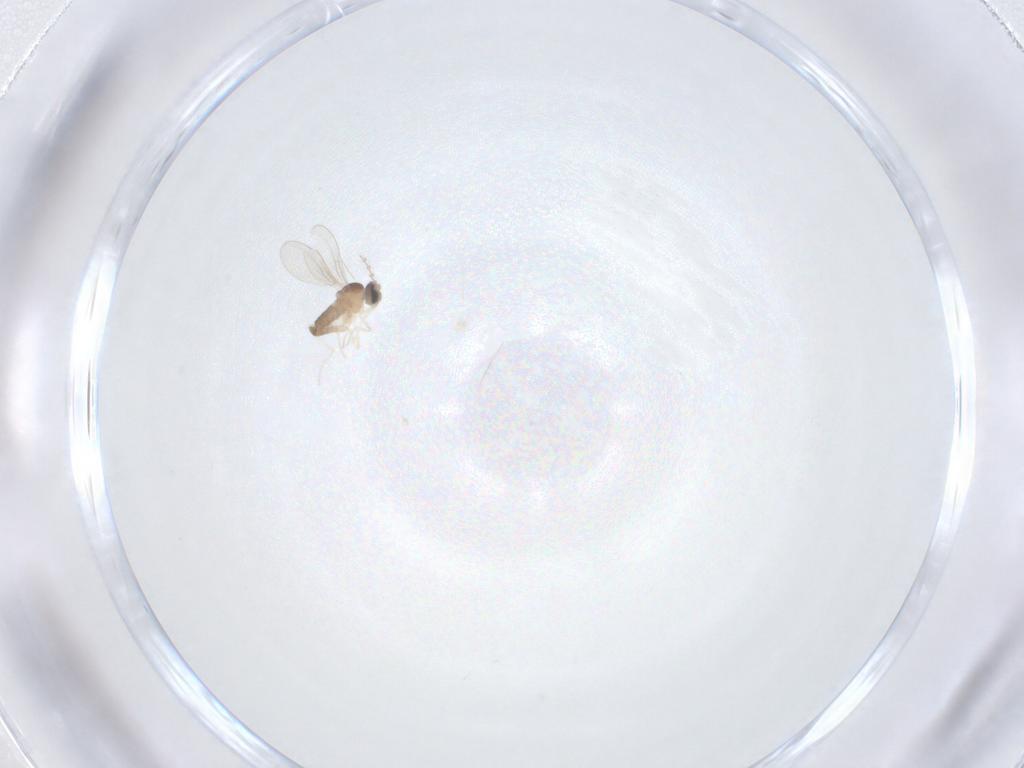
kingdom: Animalia
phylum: Arthropoda
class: Insecta
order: Diptera
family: Cecidomyiidae
